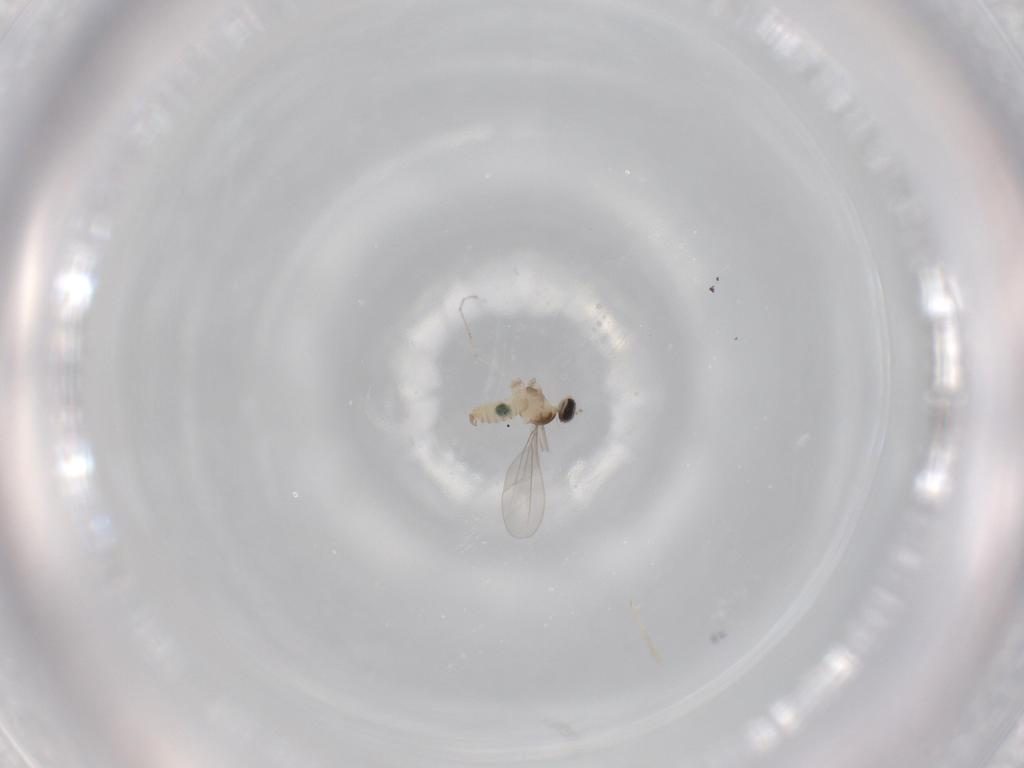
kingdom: Animalia
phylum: Arthropoda
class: Insecta
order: Diptera
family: Cecidomyiidae
